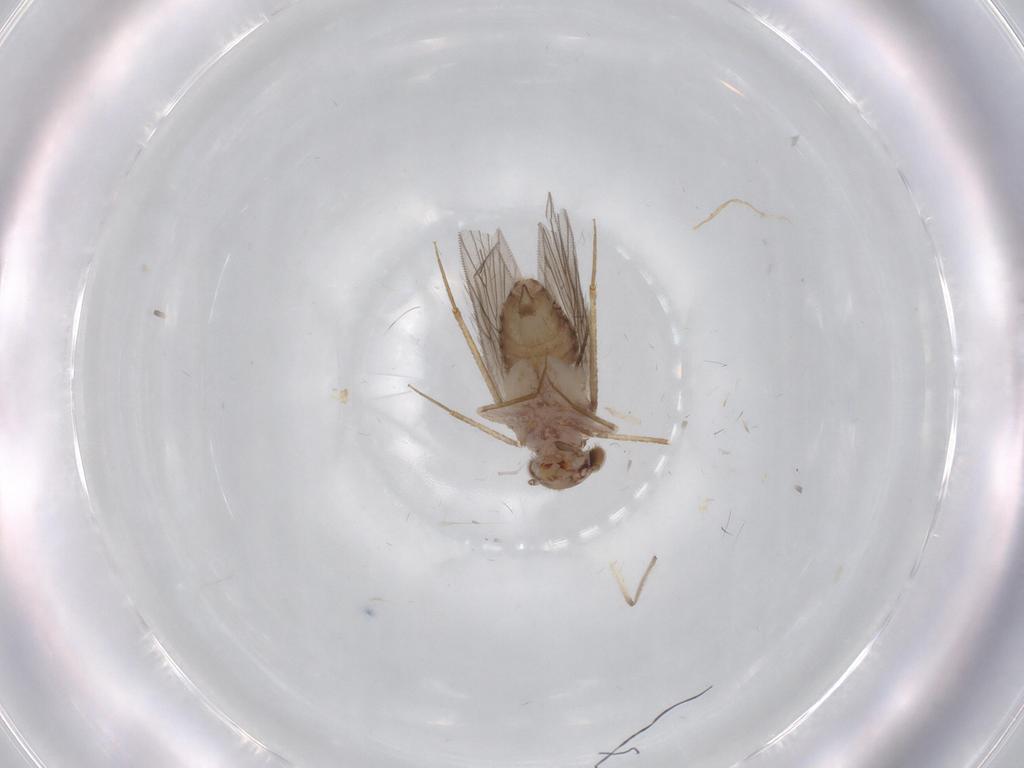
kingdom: Animalia
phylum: Arthropoda
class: Insecta
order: Psocodea
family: Lepidopsocidae
